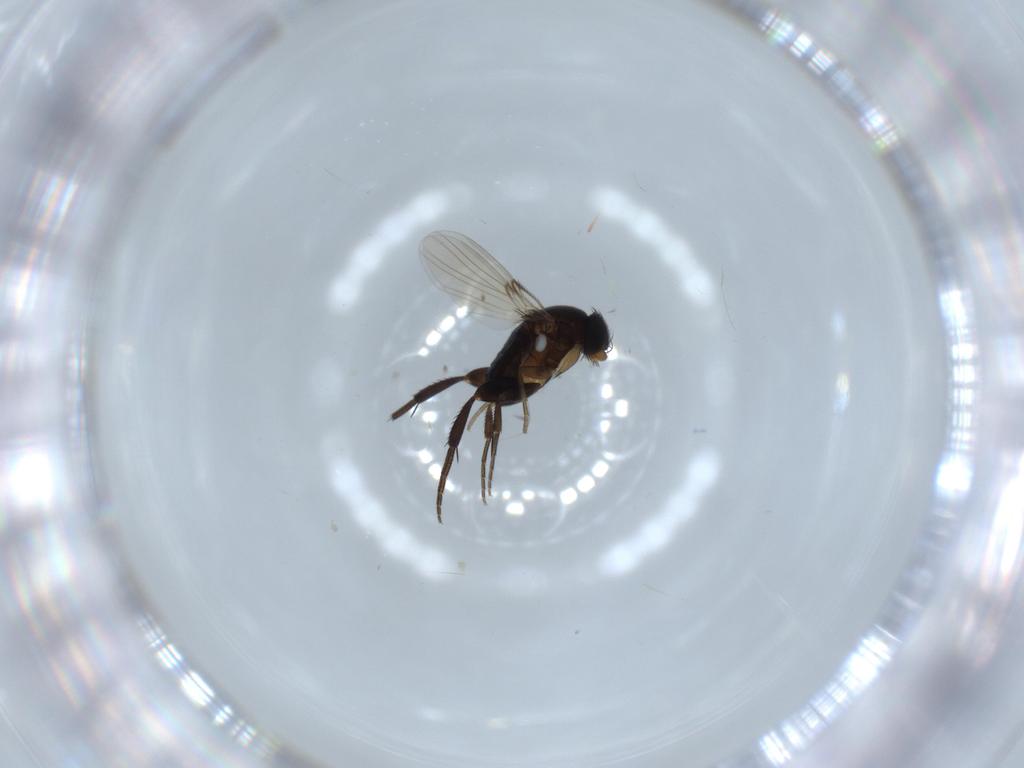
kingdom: Animalia
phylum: Arthropoda
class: Insecta
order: Diptera
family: Phoridae
